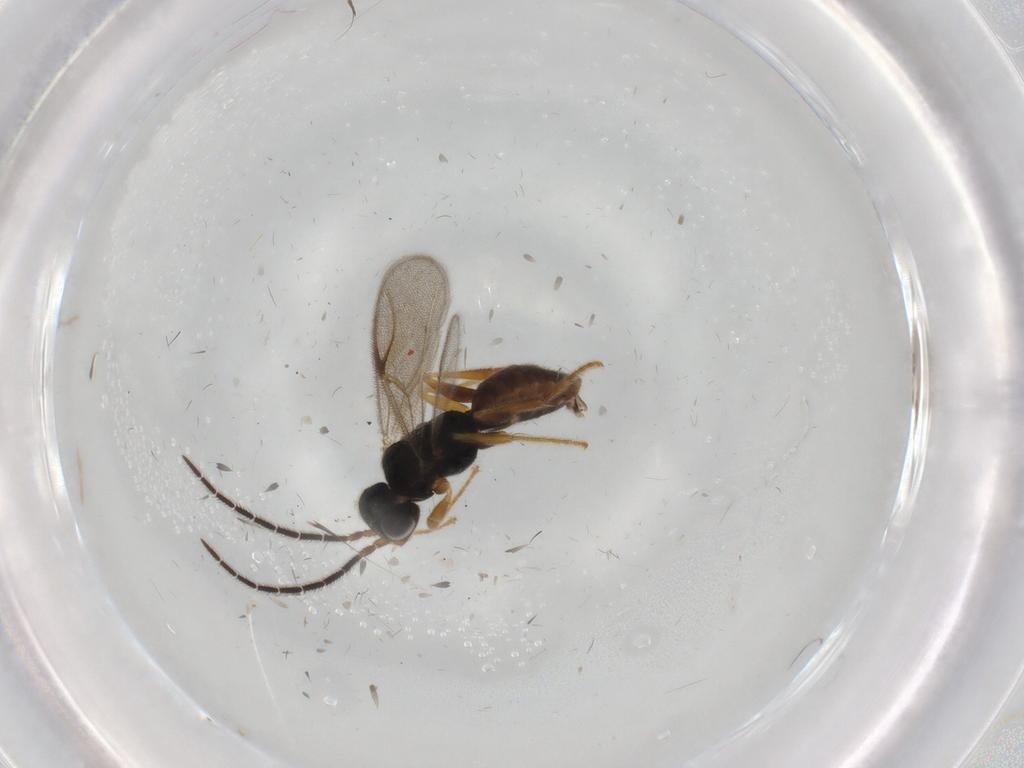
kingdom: Animalia
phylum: Arthropoda
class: Insecta
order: Hymenoptera
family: Dryinidae
